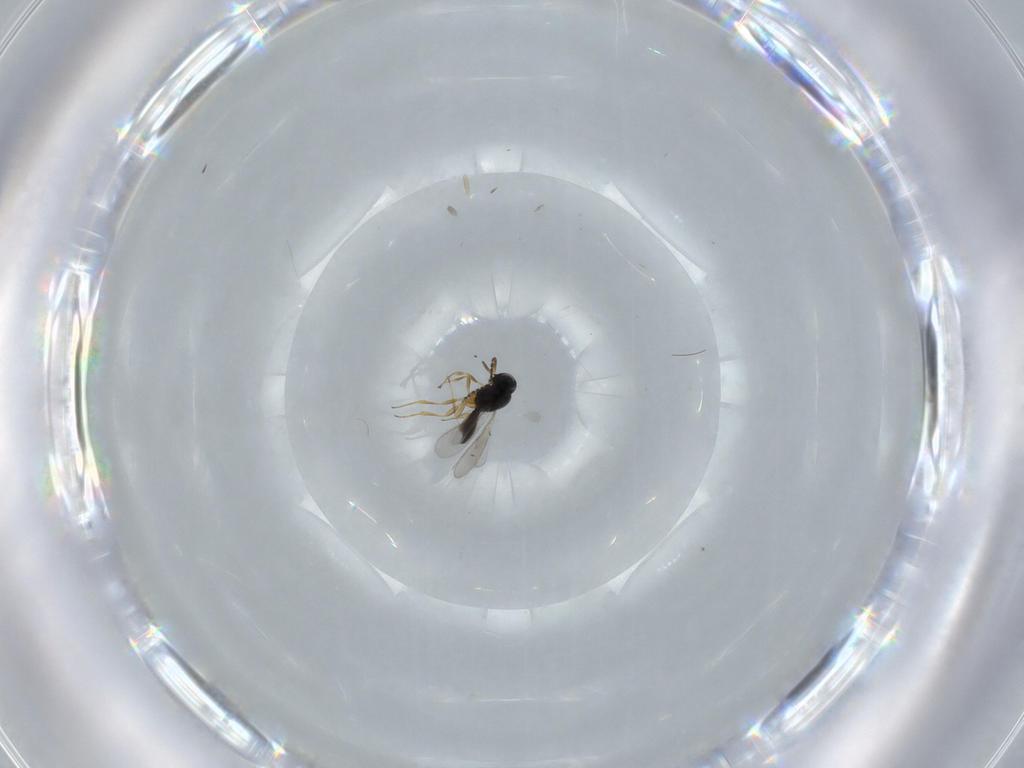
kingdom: Animalia
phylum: Arthropoda
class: Insecta
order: Hymenoptera
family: Scelionidae
